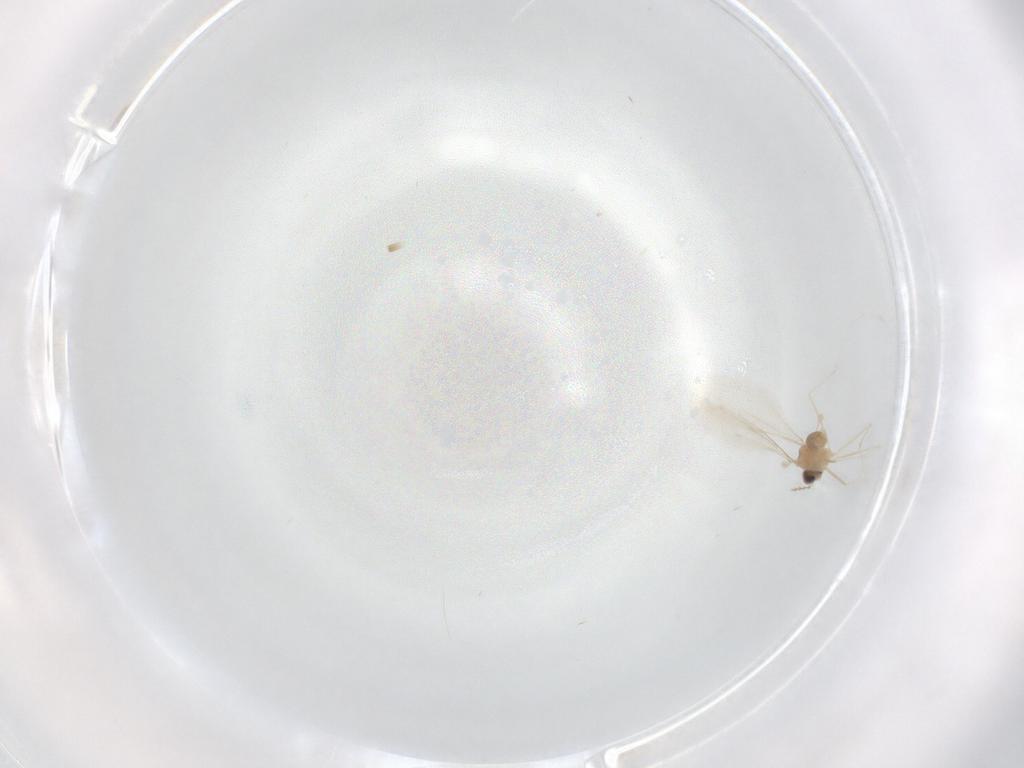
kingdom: Animalia
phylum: Arthropoda
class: Insecta
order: Diptera
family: Cecidomyiidae
